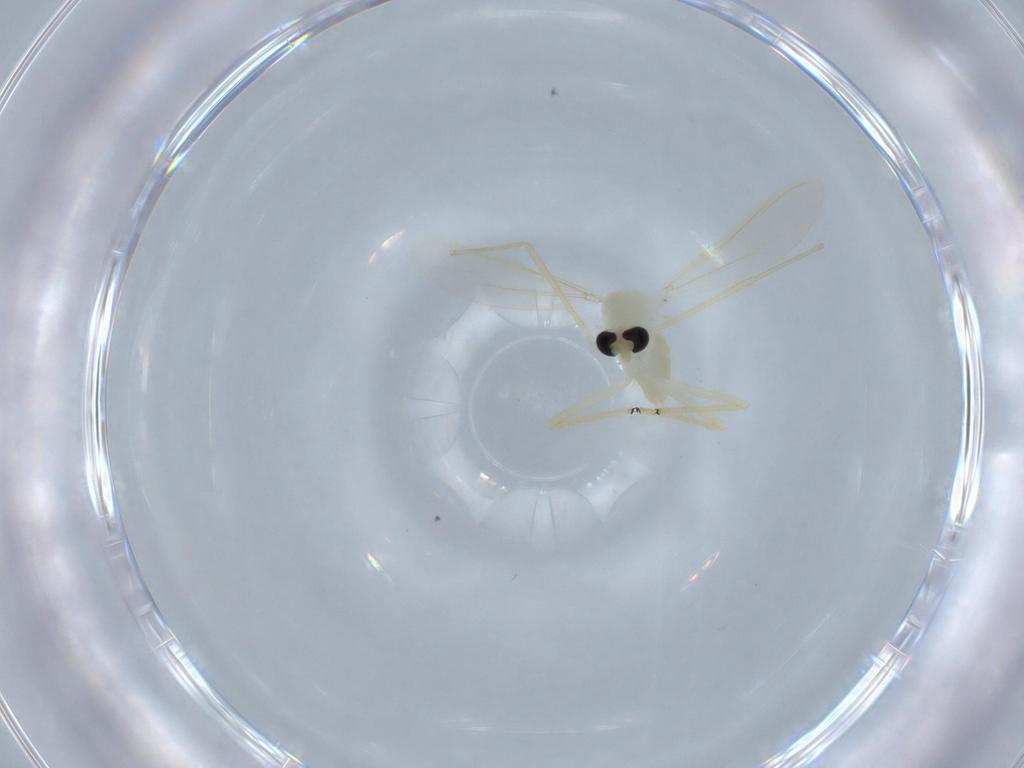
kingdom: Animalia
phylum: Arthropoda
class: Insecta
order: Diptera
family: Chironomidae
